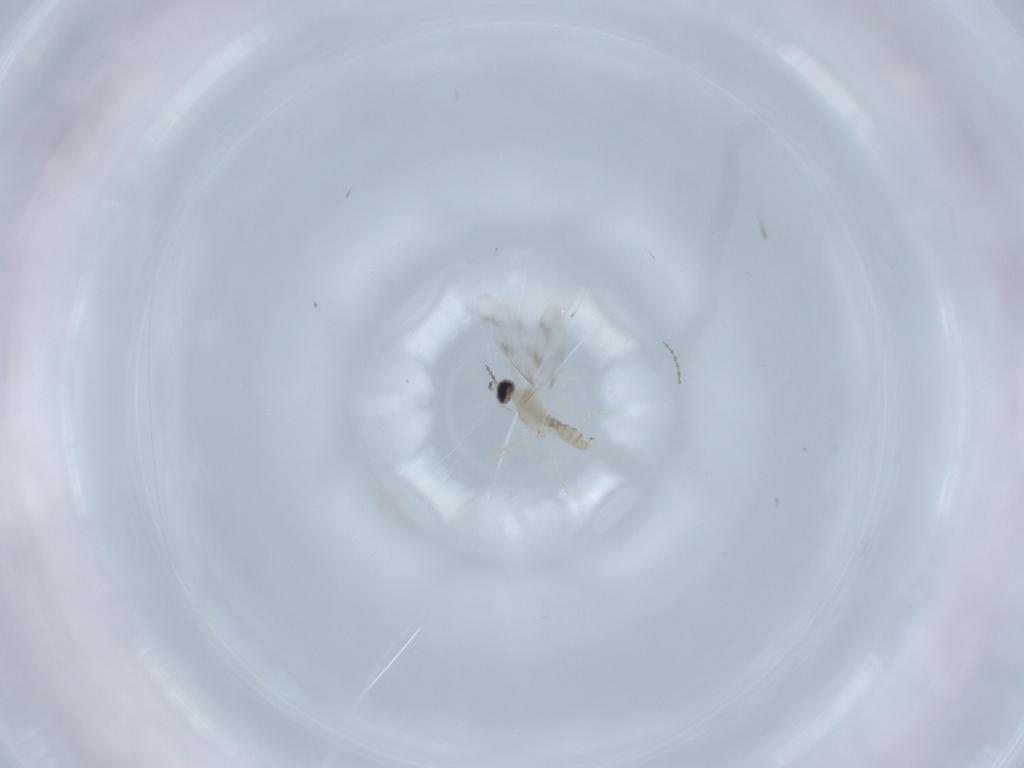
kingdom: Animalia
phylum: Arthropoda
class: Insecta
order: Diptera
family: Cecidomyiidae
